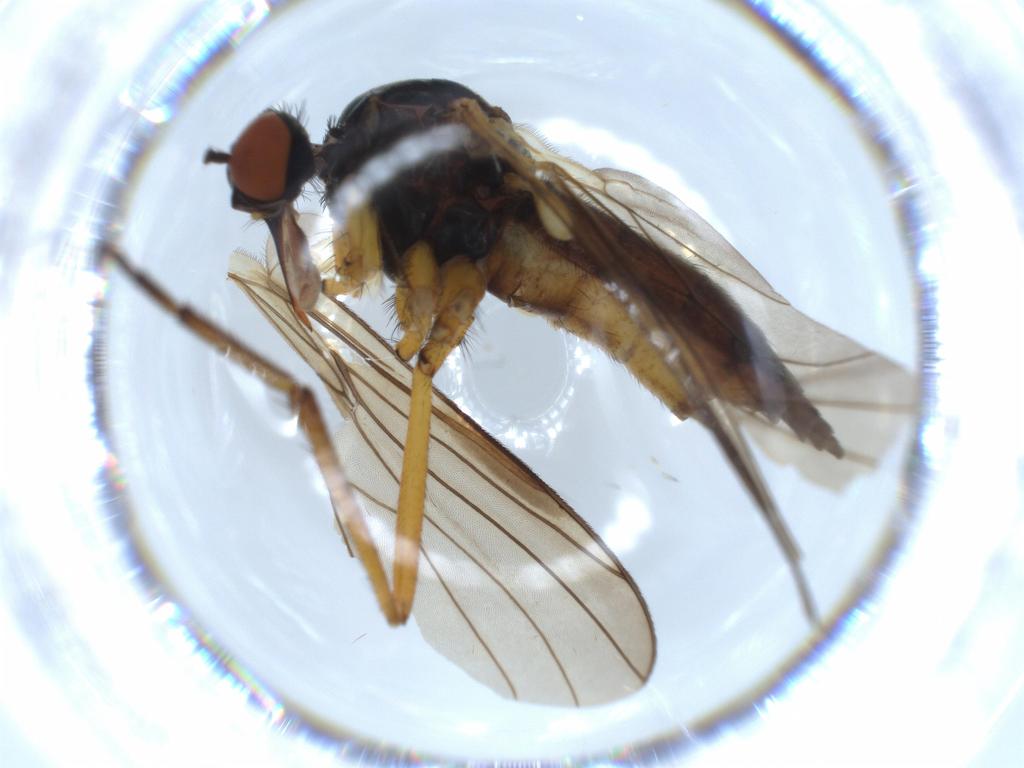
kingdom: Animalia
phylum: Arthropoda
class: Insecta
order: Diptera
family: Empididae
